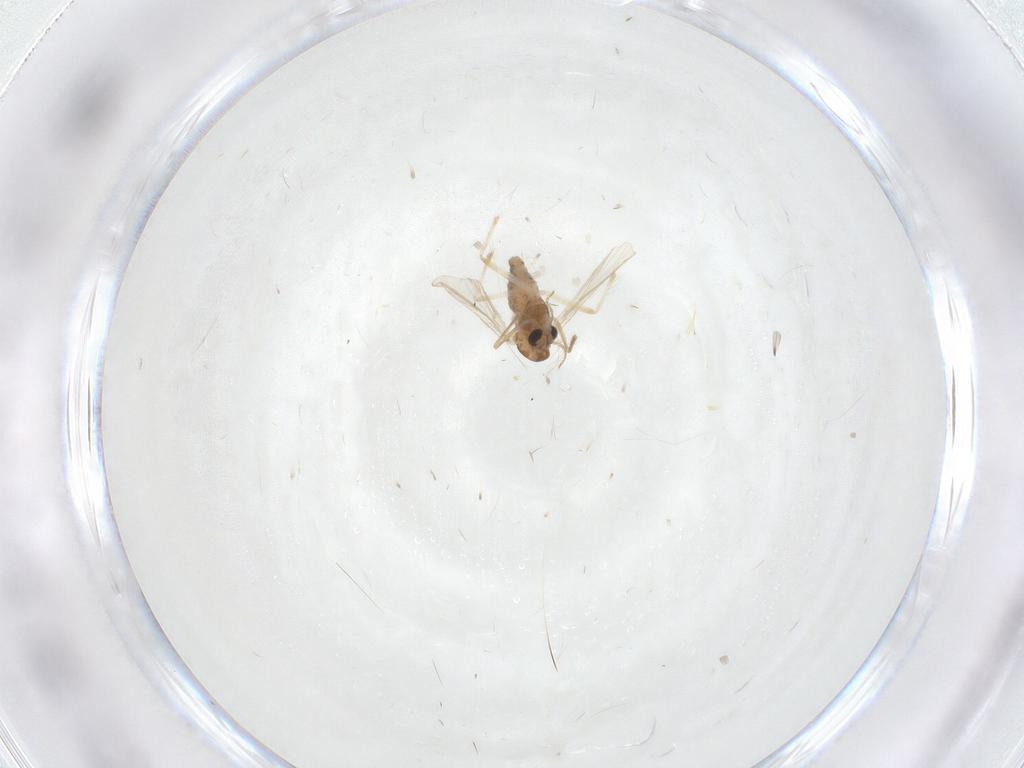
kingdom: Animalia
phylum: Arthropoda
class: Insecta
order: Diptera
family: Chironomidae
